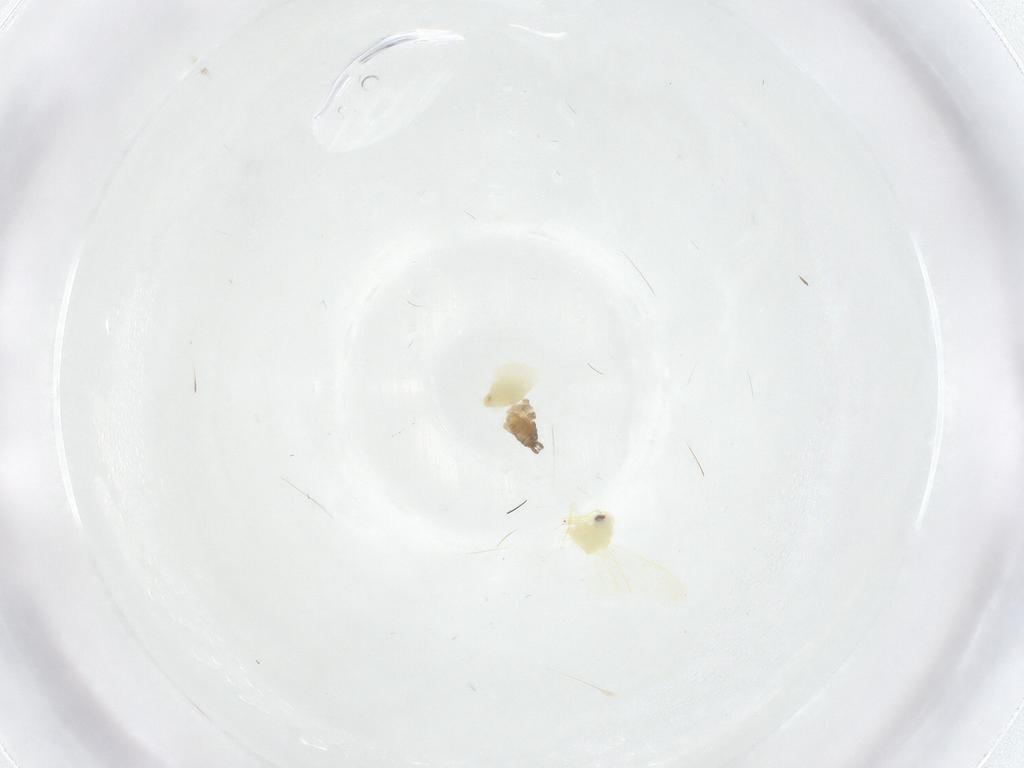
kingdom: Animalia
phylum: Arthropoda
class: Insecta
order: Diptera
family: Cecidomyiidae
